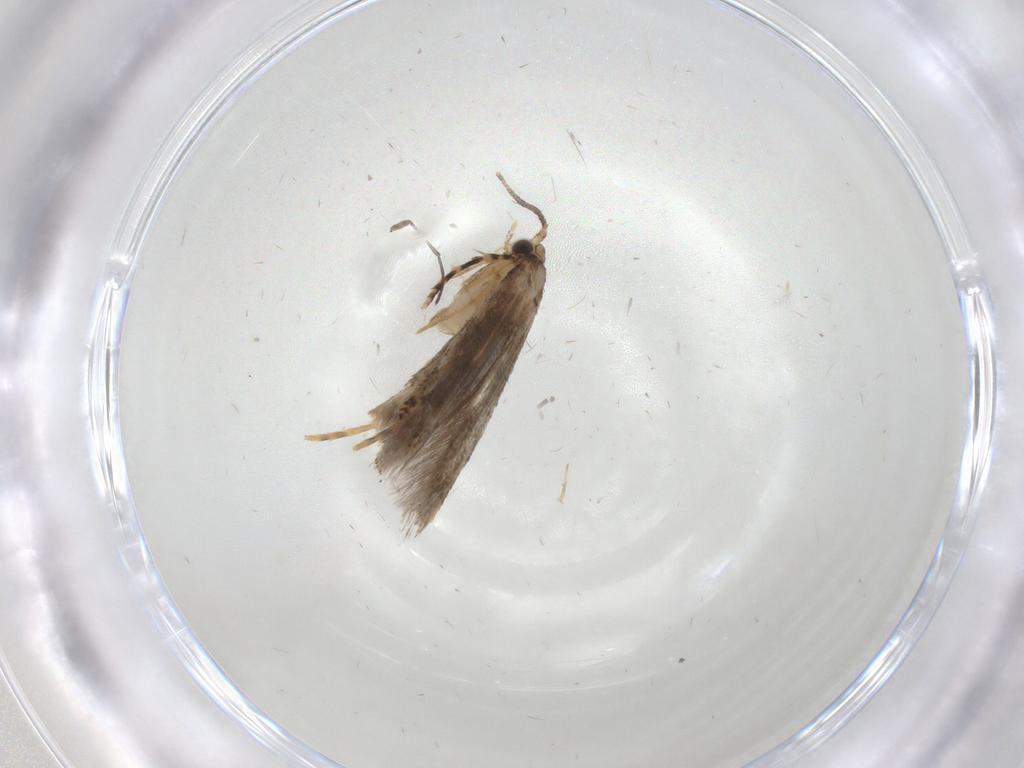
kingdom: Animalia
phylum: Arthropoda
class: Insecta
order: Lepidoptera
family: Tineidae
